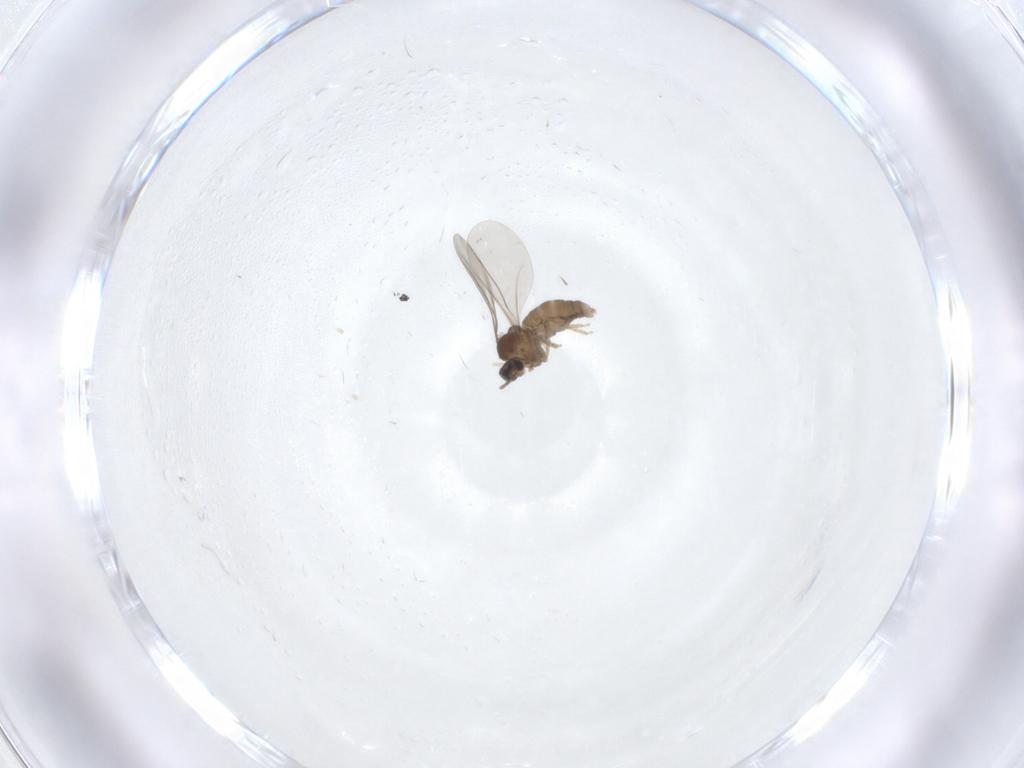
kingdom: Animalia
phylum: Arthropoda
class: Insecta
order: Diptera
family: Cecidomyiidae
